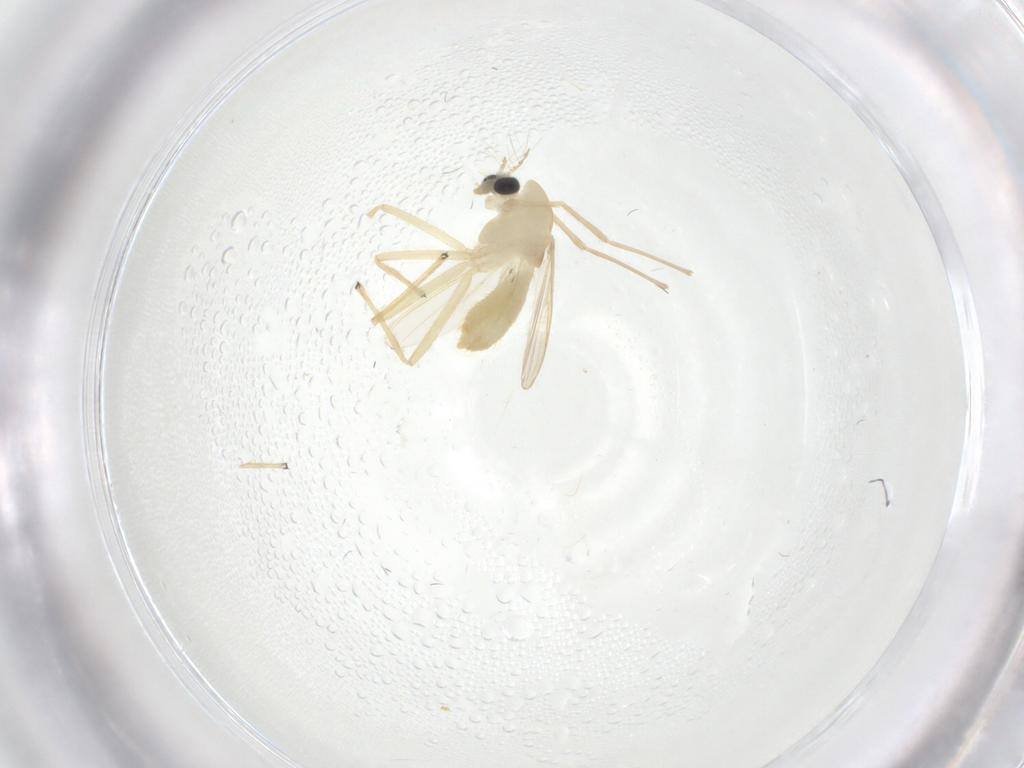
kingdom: Animalia
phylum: Arthropoda
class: Insecta
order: Diptera
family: Chironomidae
